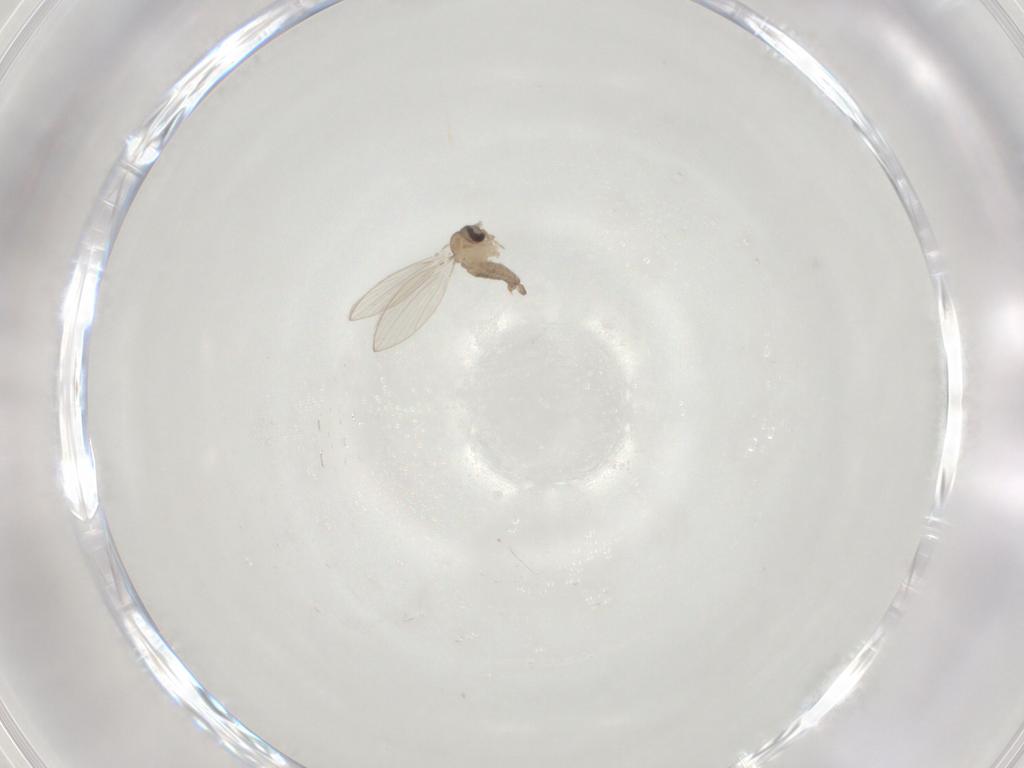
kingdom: Animalia
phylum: Arthropoda
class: Insecta
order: Diptera
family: Psychodidae
